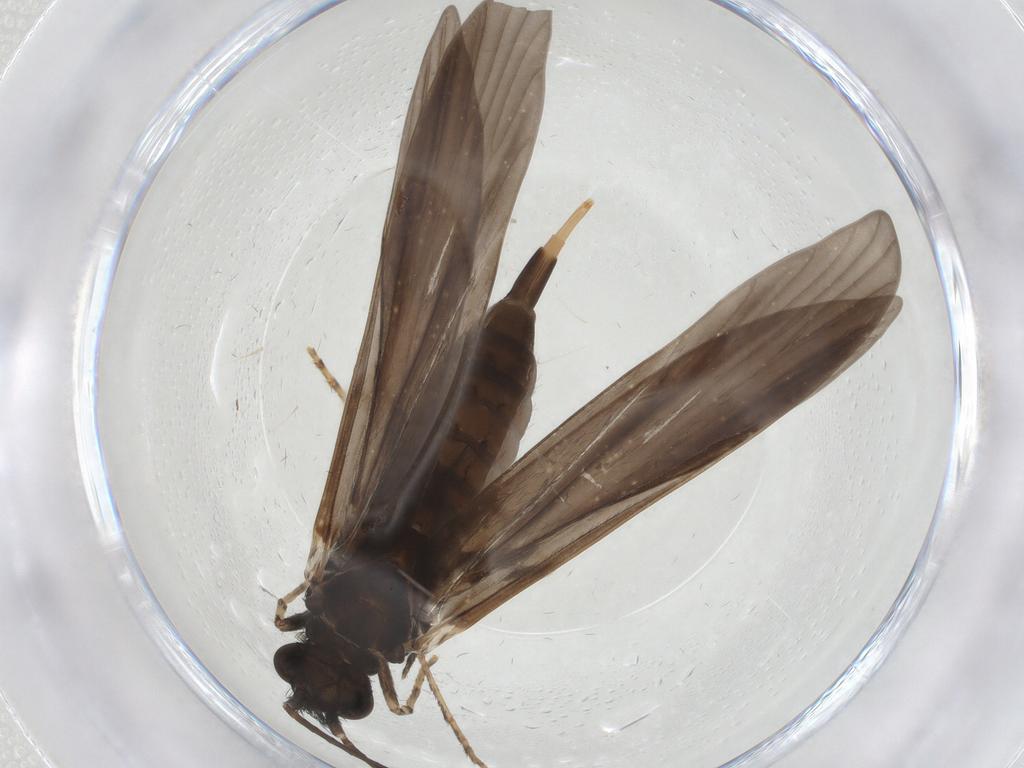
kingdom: Animalia
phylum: Arthropoda
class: Insecta
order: Trichoptera
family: Xiphocentronidae
